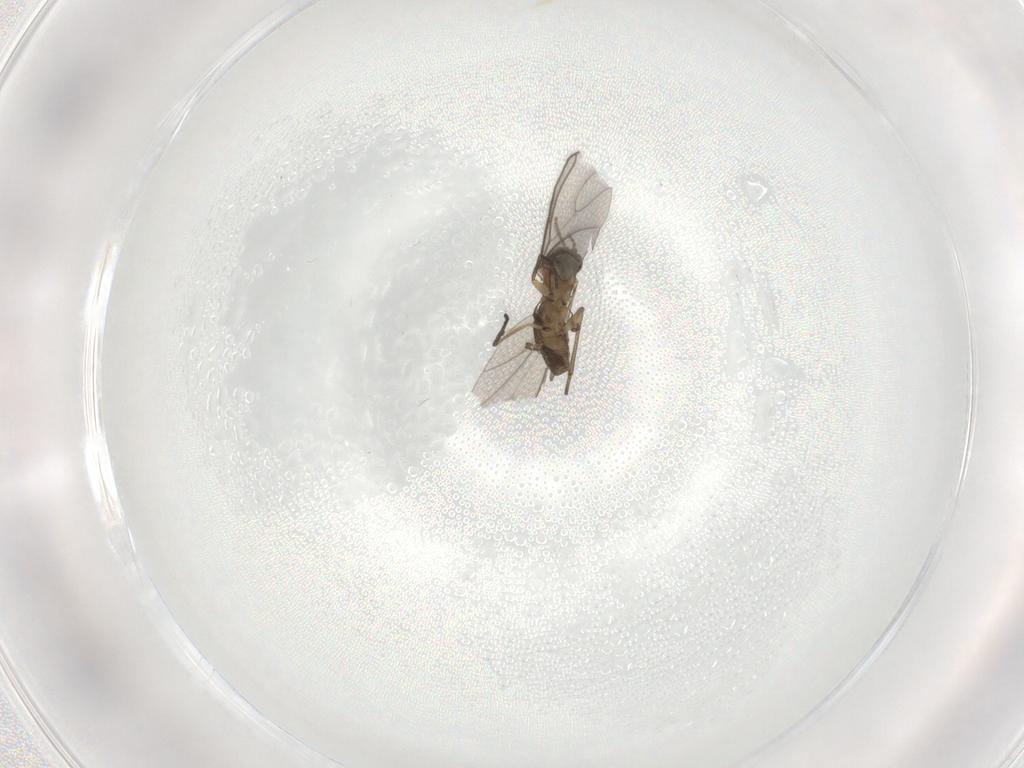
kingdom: Animalia
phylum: Arthropoda
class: Insecta
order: Diptera
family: Sciaridae
